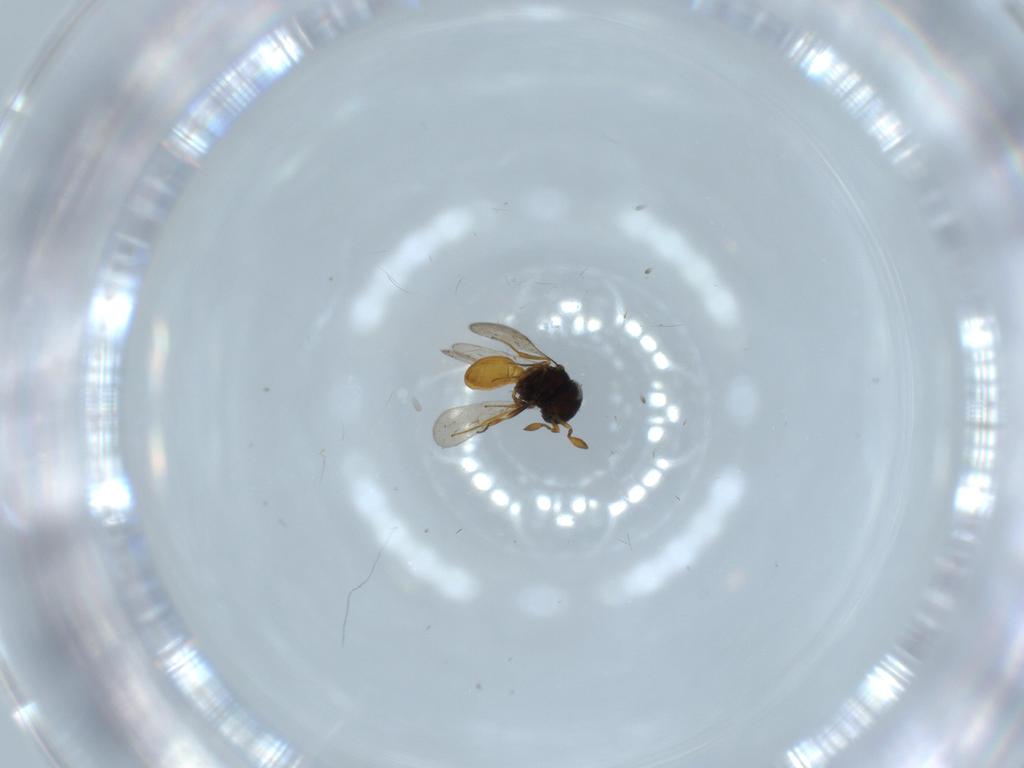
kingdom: Animalia
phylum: Arthropoda
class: Insecta
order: Hymenoptera
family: Scelionidae
